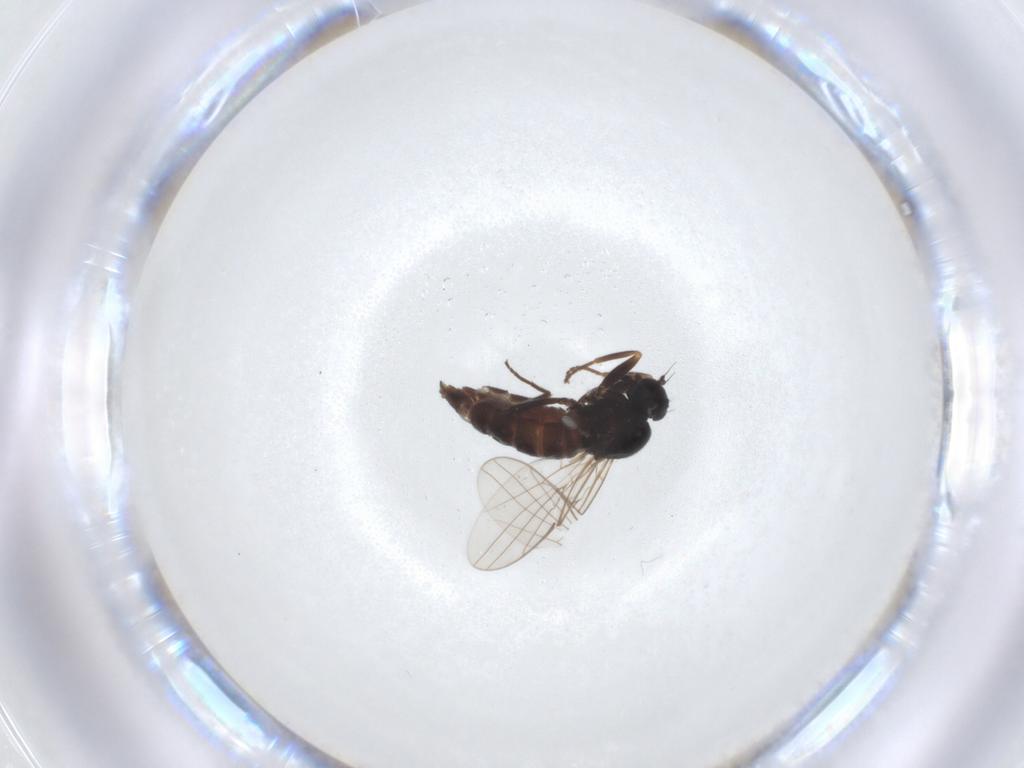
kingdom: Animalia
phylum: Arthropoda
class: Insecta
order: Diptera
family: Hybotidae
